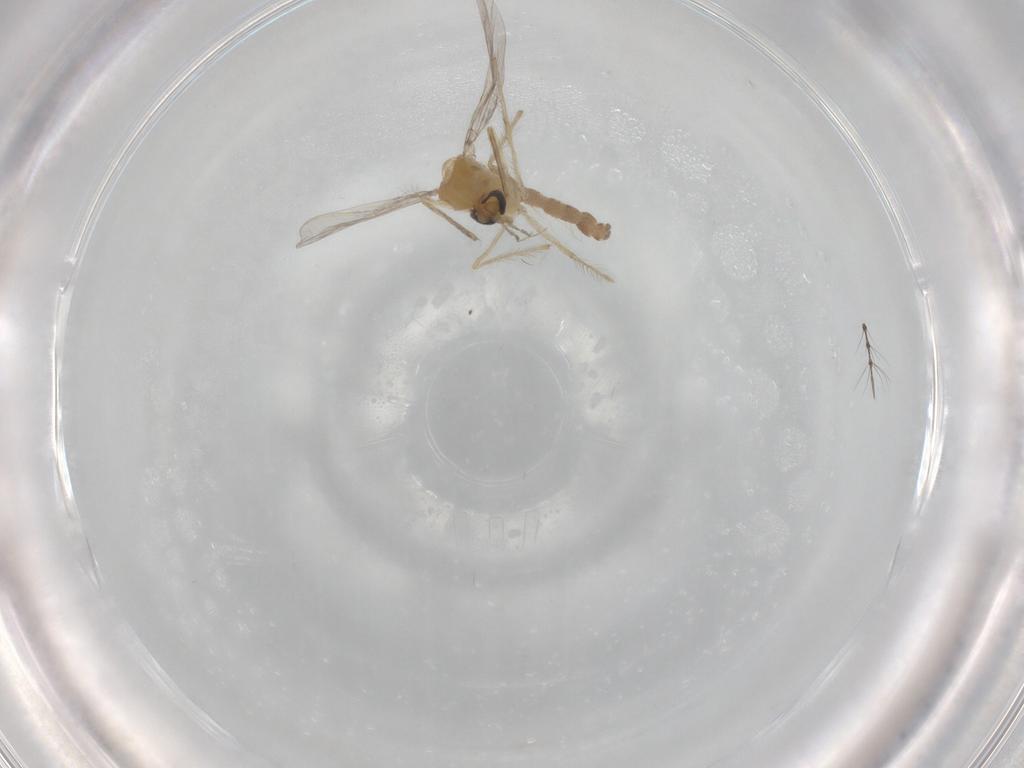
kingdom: Animalia
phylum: Arthropoda
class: Insecta
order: Diptera
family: Chironomidae
